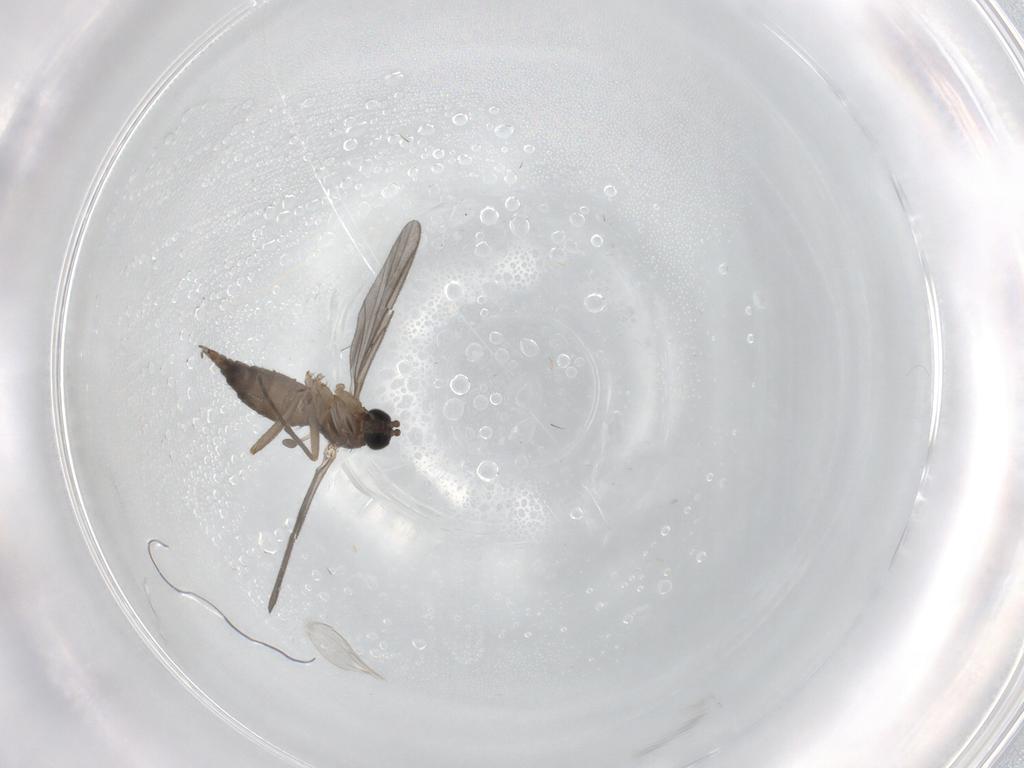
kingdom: Animalia
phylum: Arthropoda
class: Insecta
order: Diptera
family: Sciaridae
